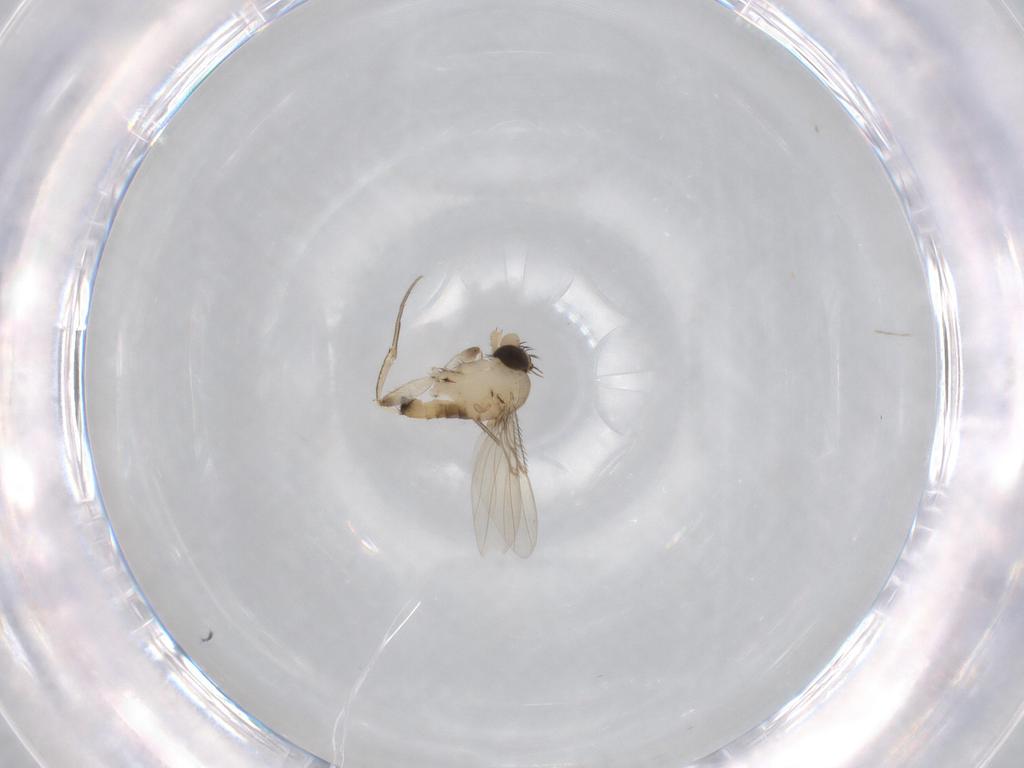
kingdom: Animalia
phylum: Arthropoda
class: Insecta
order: Diptera
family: Phoridae
